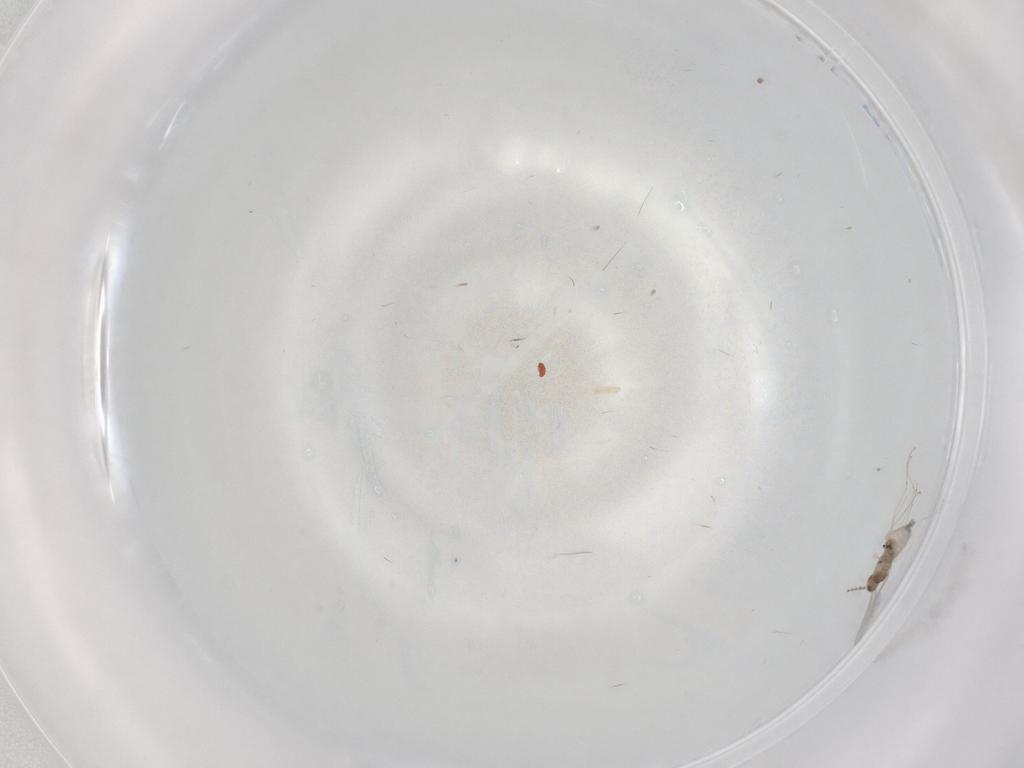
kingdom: Animalia
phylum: Arthropoda
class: Insecta
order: Diptera
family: Cecidomyiidae
